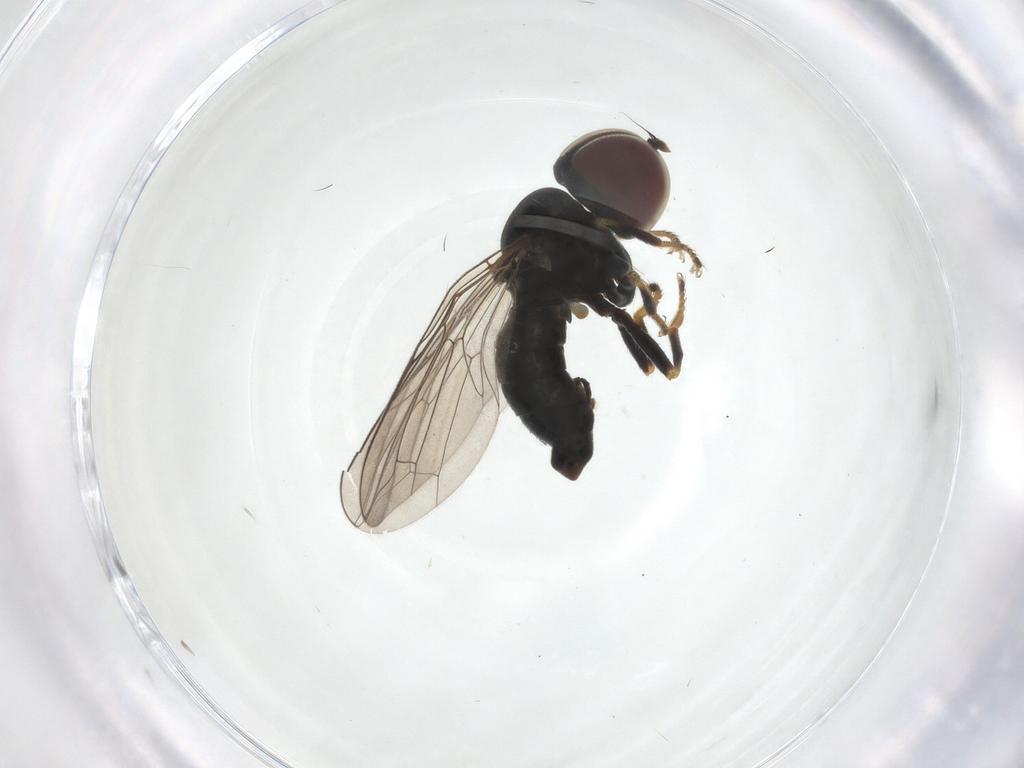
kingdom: Animalia
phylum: Arthropoda
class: Insecta
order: Diptera
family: Pipunculidae
